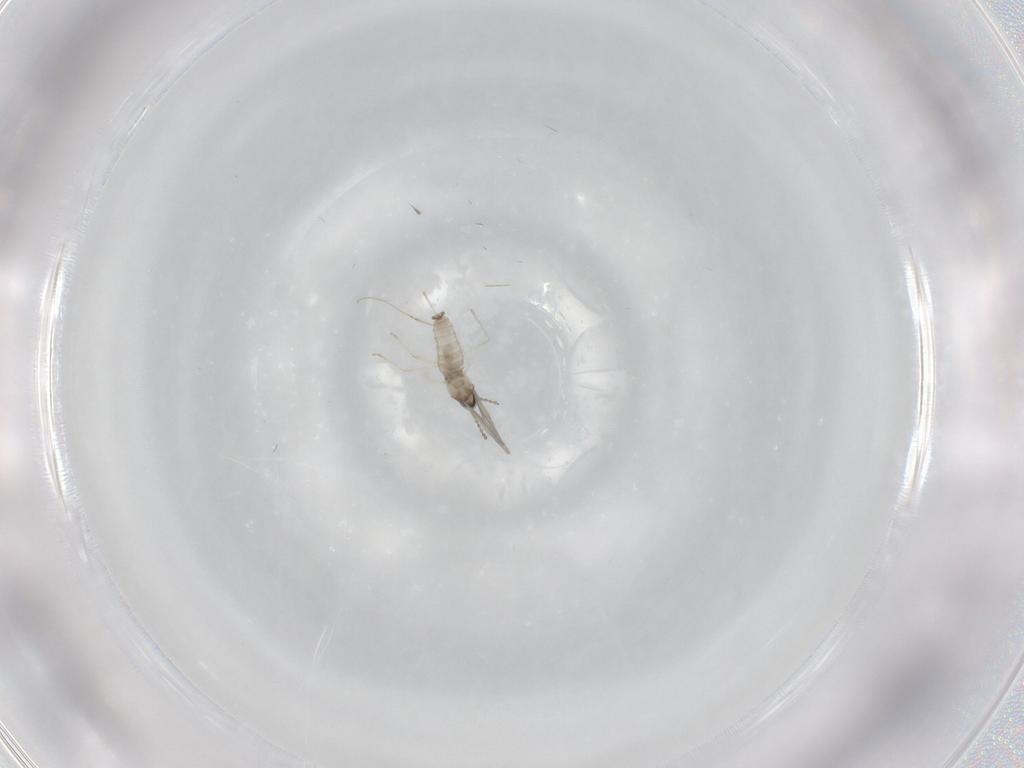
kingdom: Animalia
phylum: Arthropoda
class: Insecta
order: Diptera
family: Cecidomyiidae
